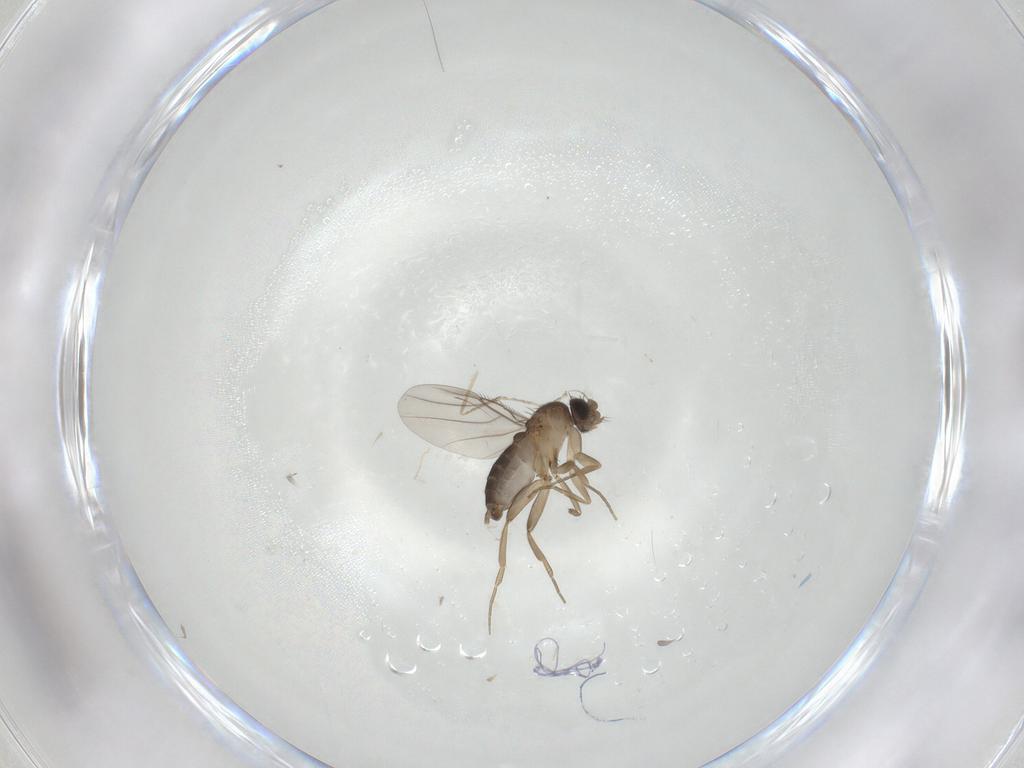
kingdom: Animalia
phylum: Arthropoda
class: Insecta
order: Diptera
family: Cecidomyiidae
